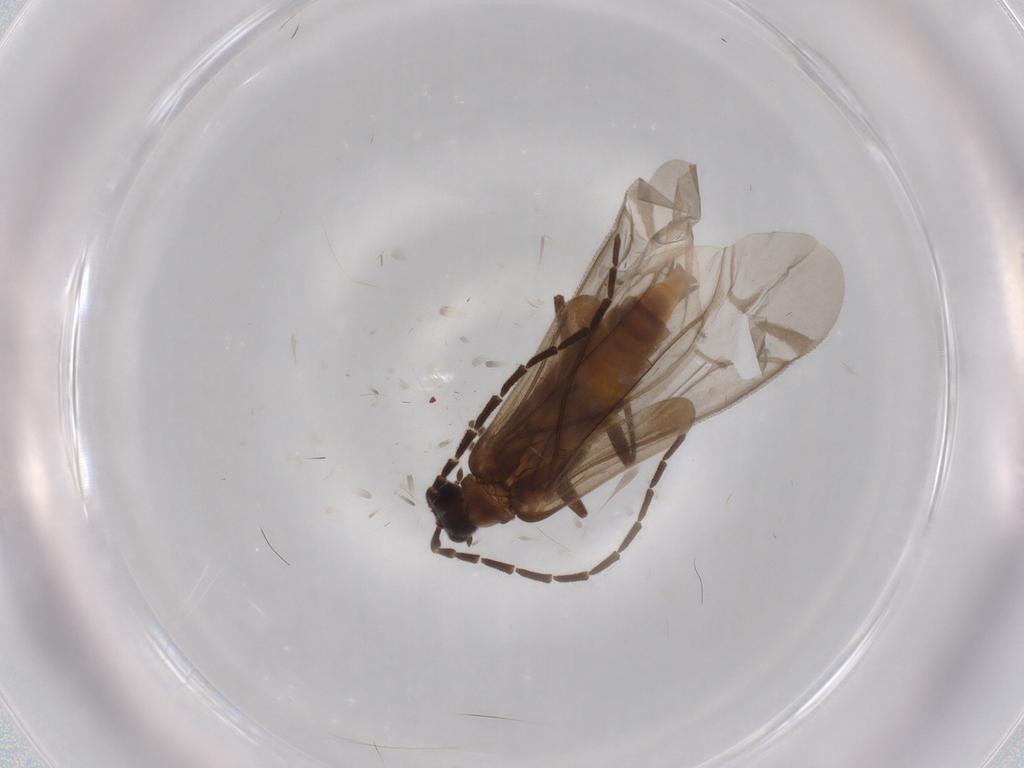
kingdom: Animalia
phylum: Arthropoda
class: Insecta
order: Coleoptera
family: Cantharidae
